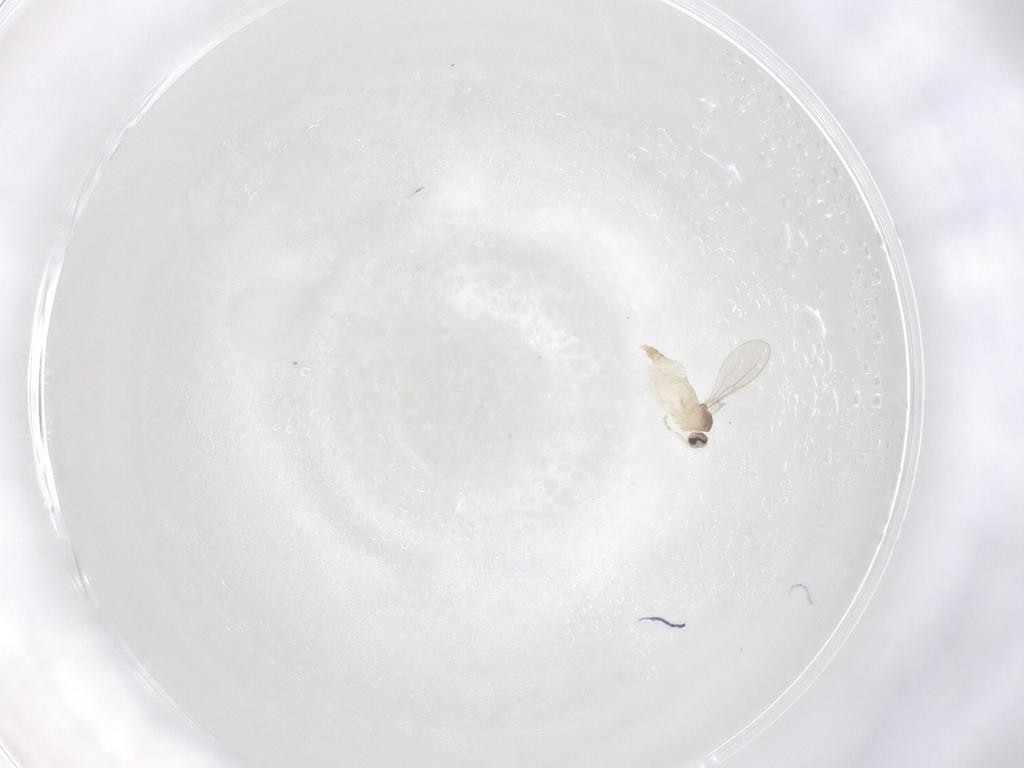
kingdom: Animalia
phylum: Arthropoda
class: Insecta
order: Diptera
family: Cecidomyiidae
